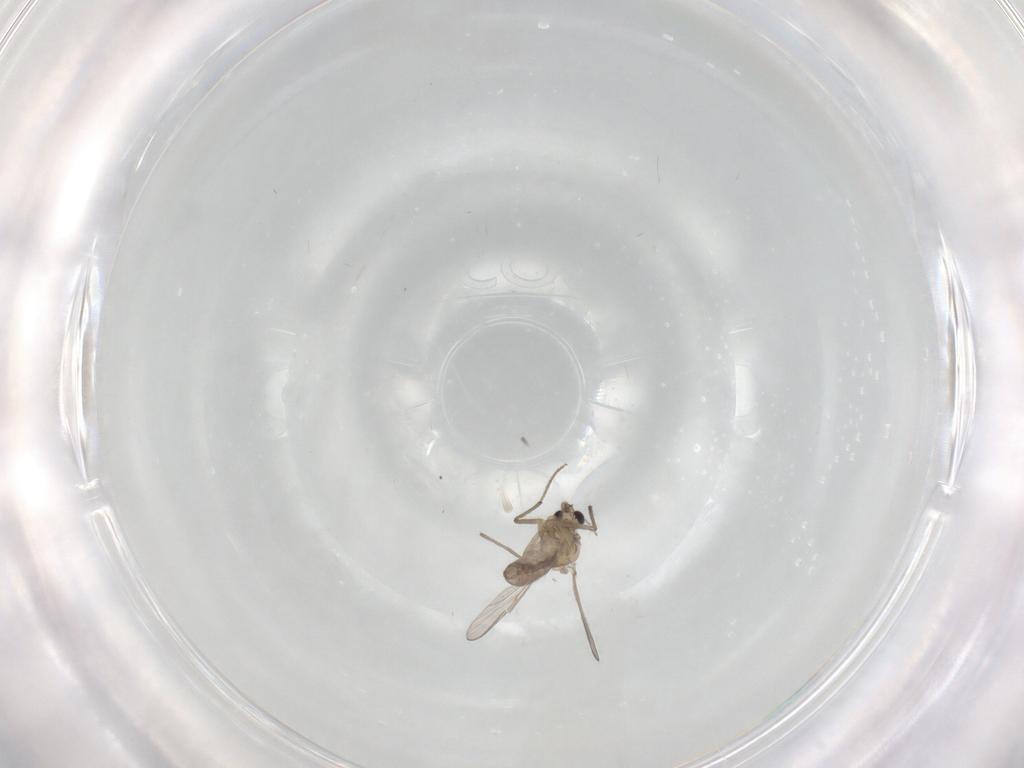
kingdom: Animalia
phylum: Arthropoda
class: Insecta
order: Diptera
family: Chironomidae
